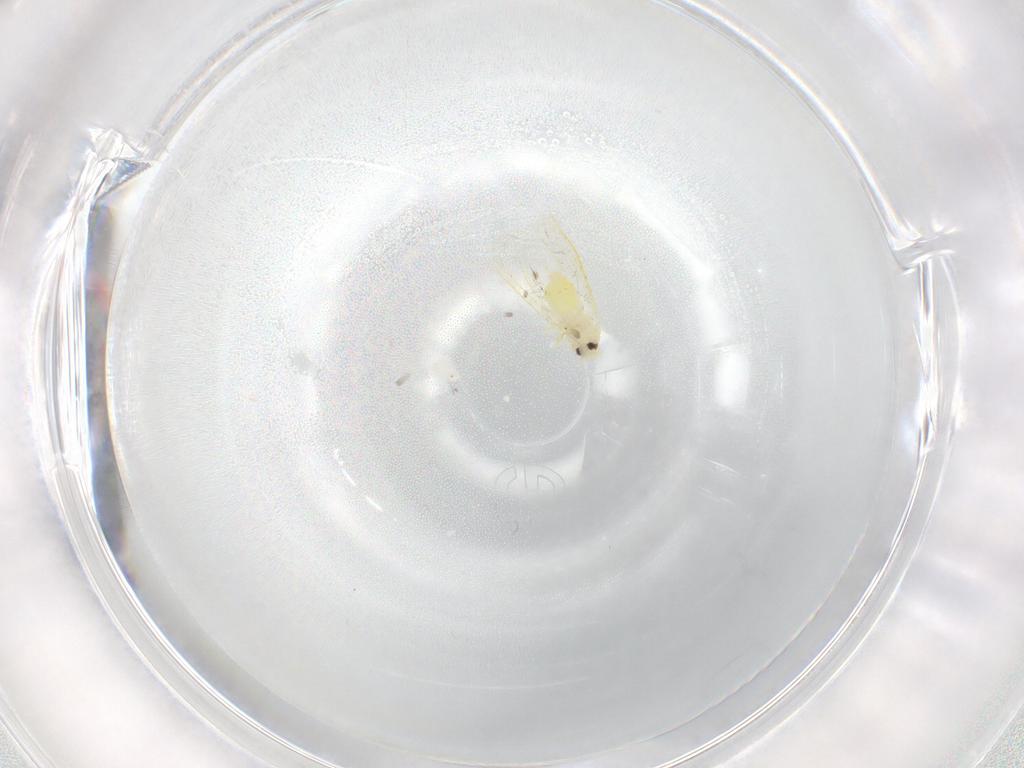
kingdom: Animalia
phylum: Arthropoda
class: Insecta
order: Hemiptera
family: Aleyrodidae
